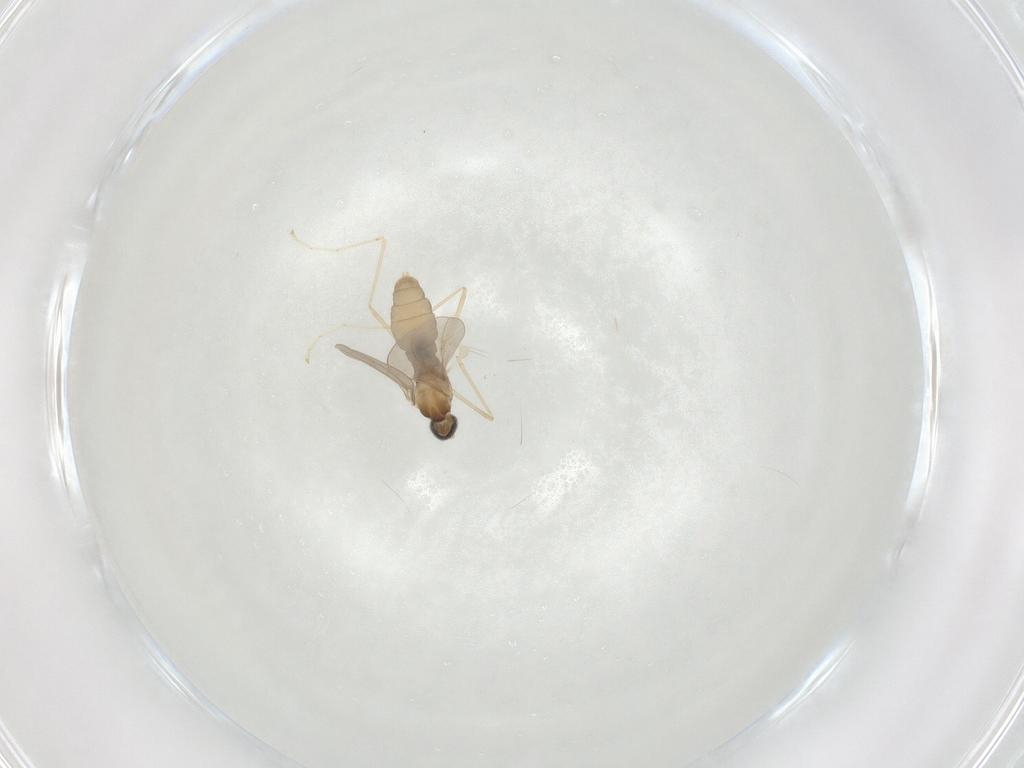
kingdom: Animalia
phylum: Arthropoda
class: Insecta
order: Diptera
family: Cecidomyiidae
